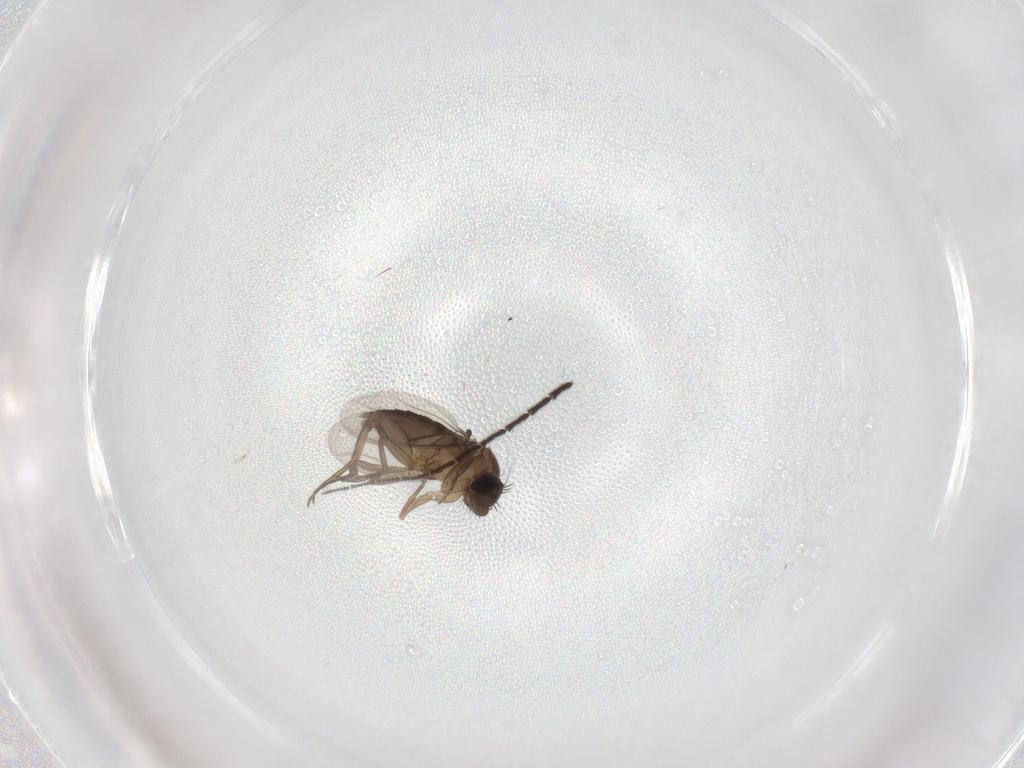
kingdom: Animalia
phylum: Arthropoda
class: Insecta
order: Diptera
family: Phoridae
